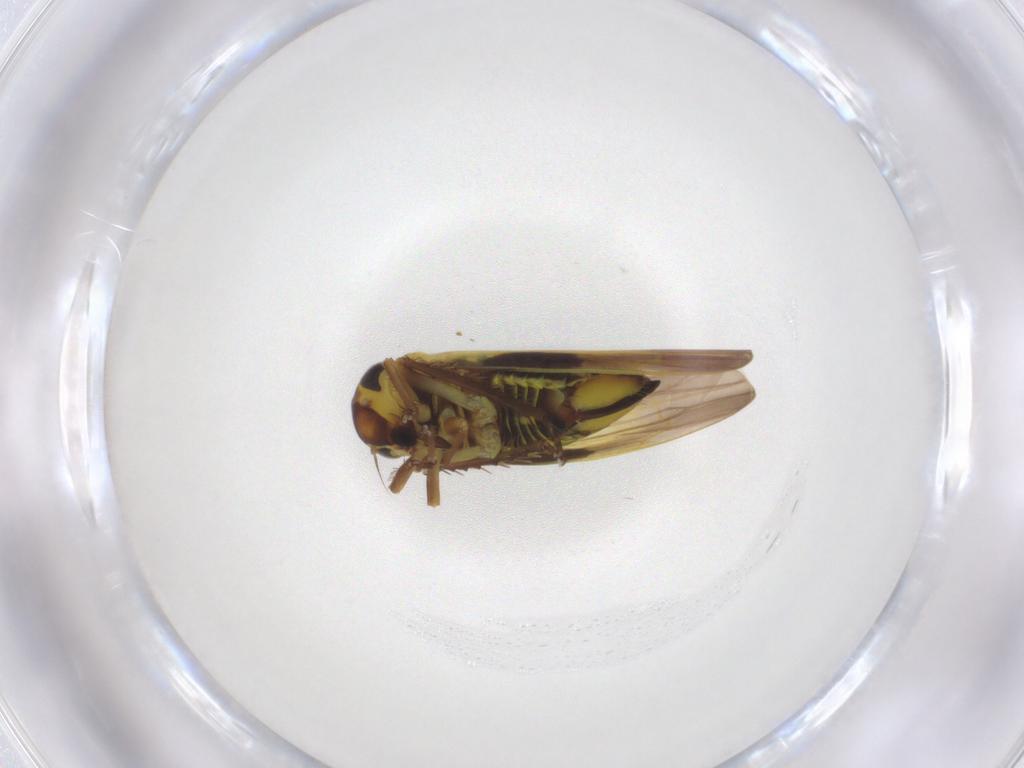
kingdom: Animalia
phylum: Arthropoda
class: Insecta
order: Hemiptera
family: Cicadellidae
